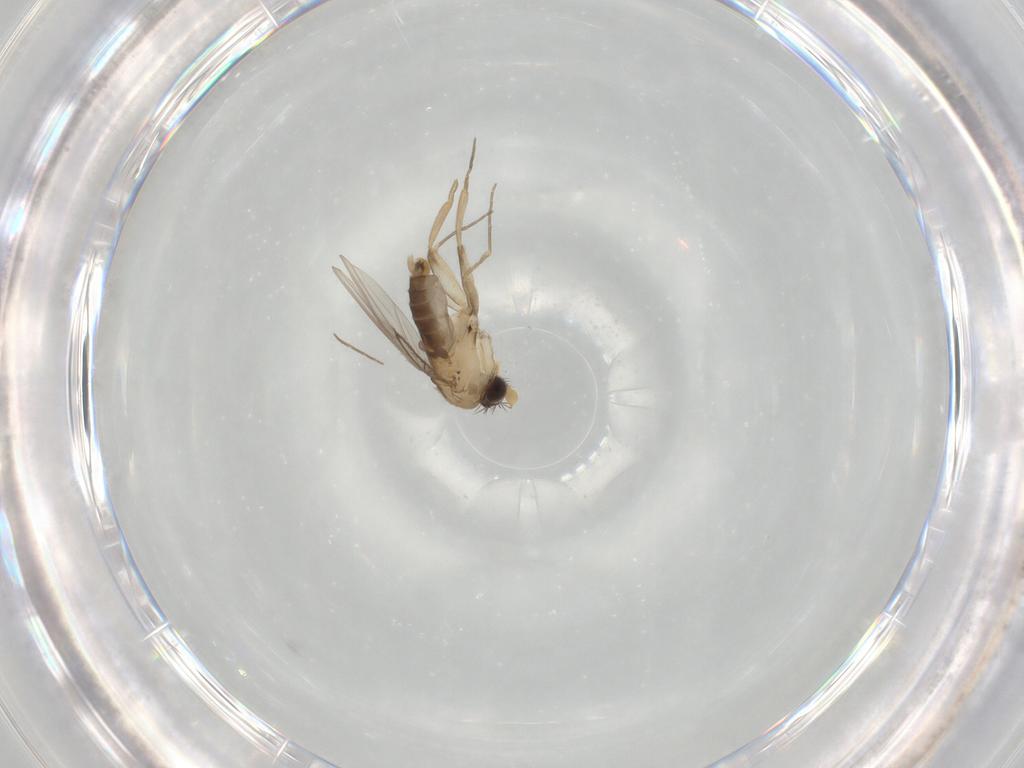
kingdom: Animalia
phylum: Arthropoda
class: Insecta
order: Diptera
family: Phoridae
